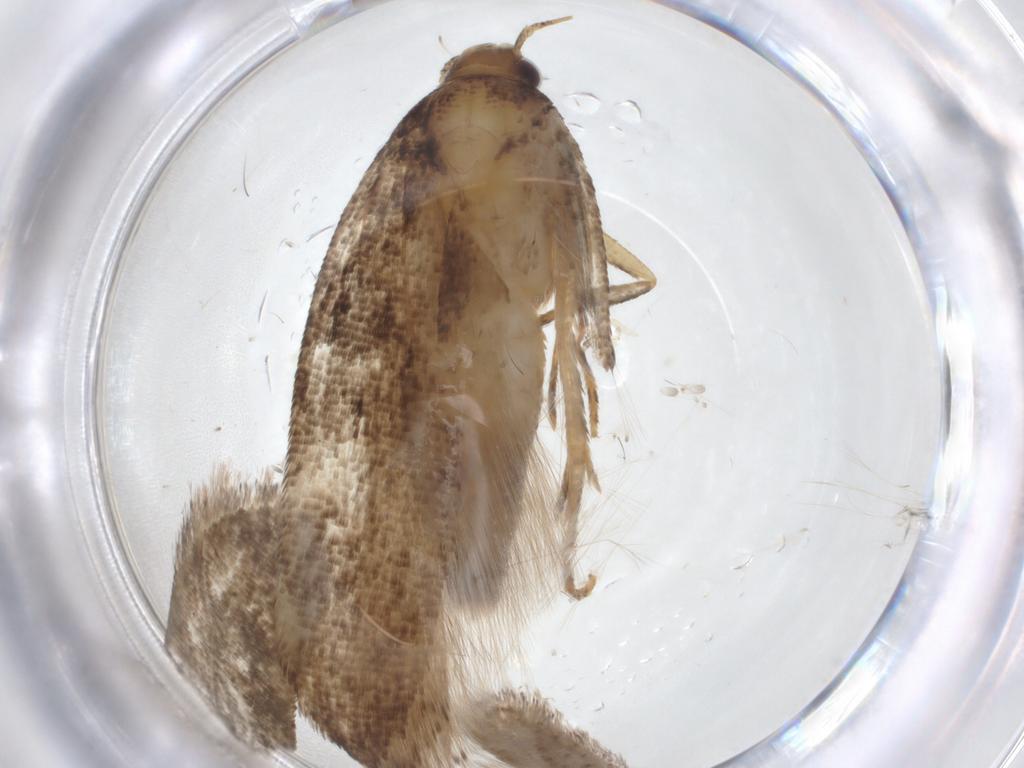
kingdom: Animalia
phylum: Arthropoda
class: Insecta
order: Lepidoptera
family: Gelechiidae
